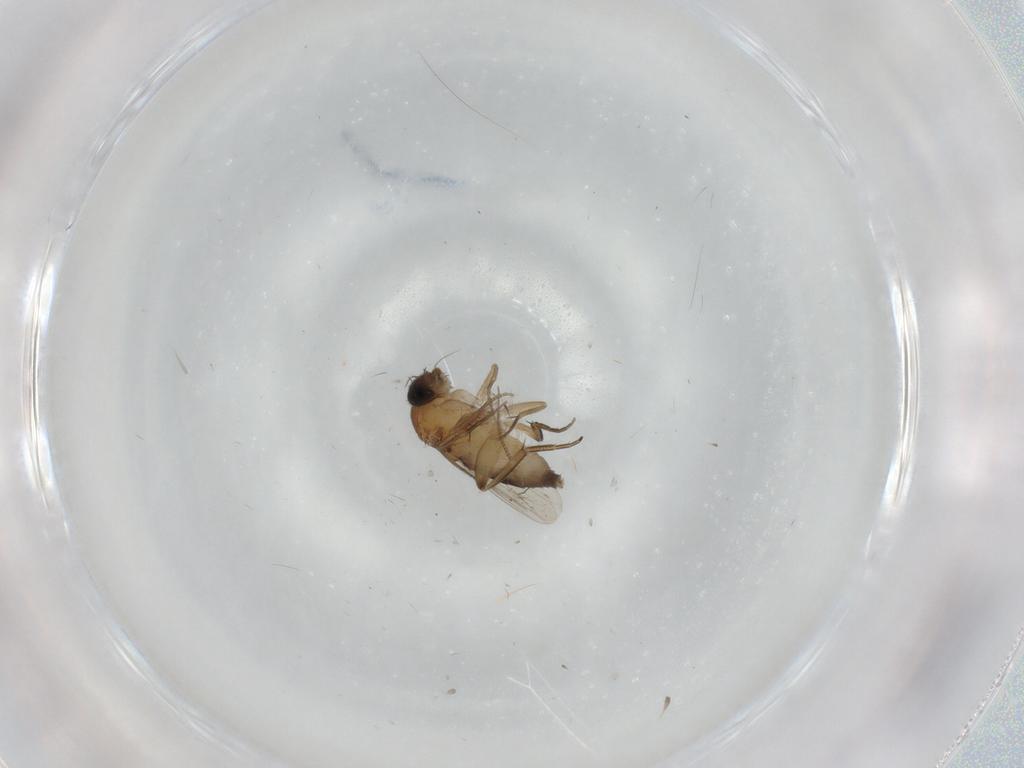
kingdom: Animalia
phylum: Arthropoda
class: Insecta
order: Diptera
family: Phoridae
